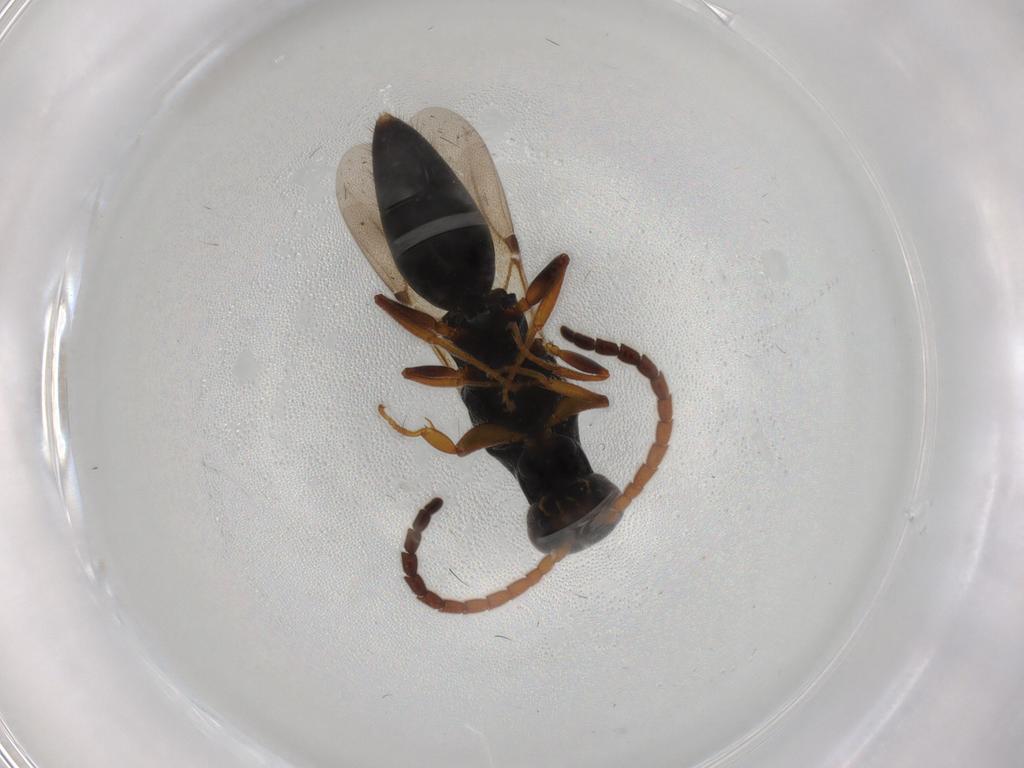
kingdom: Animalia
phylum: Arthropoda
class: Insecta
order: Hymenoptera
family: Bethylidae
